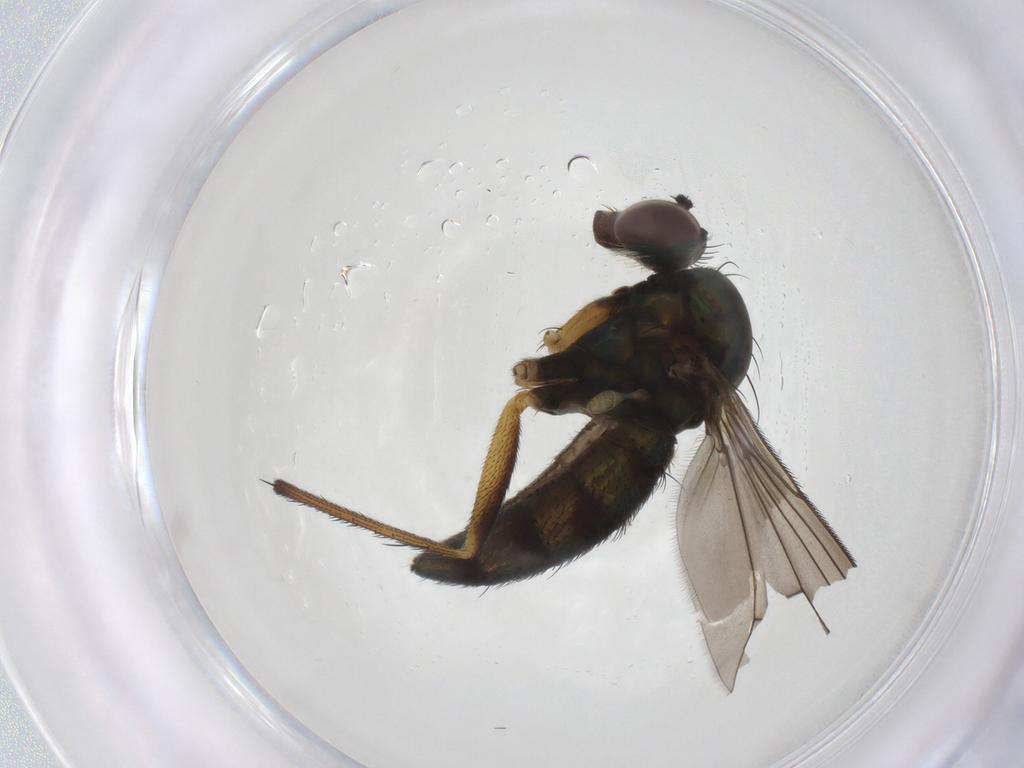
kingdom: Animalia
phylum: Arthropoda
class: Insecta
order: Diptera
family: Dolichopodidae
